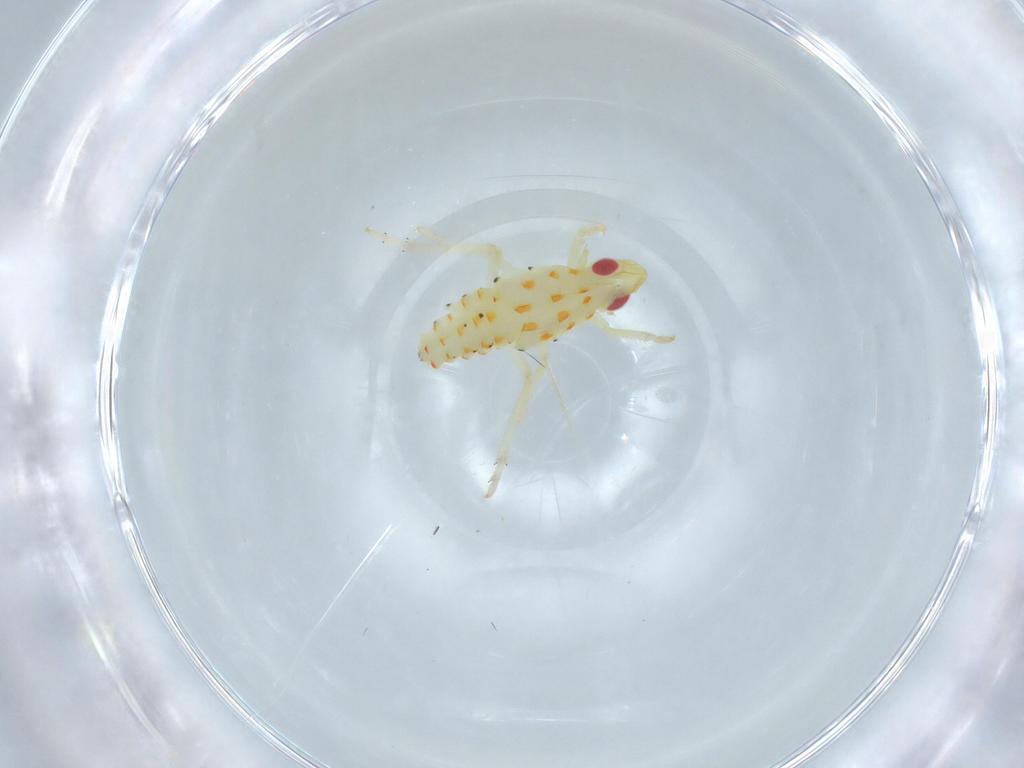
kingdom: Animalia
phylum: Arthropoda
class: Insecta
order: Hemiptera
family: Tropiduchidae
